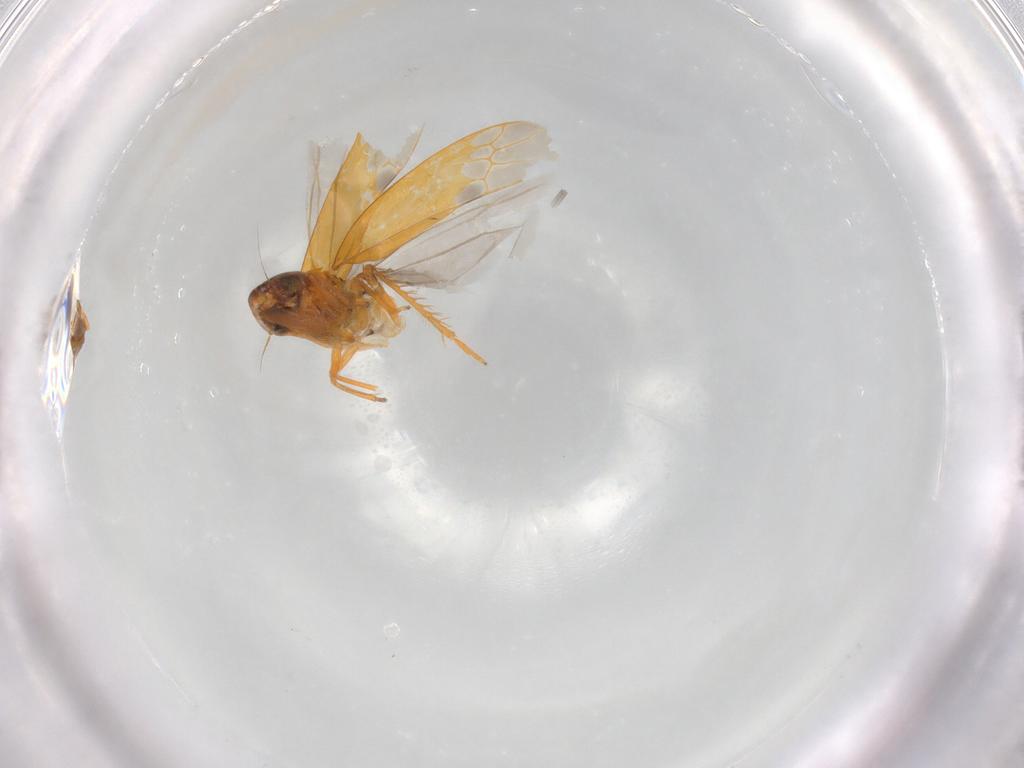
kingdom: Animalia
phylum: Arthropoda
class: Insecta
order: Hemiptera
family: Cicadellidae
